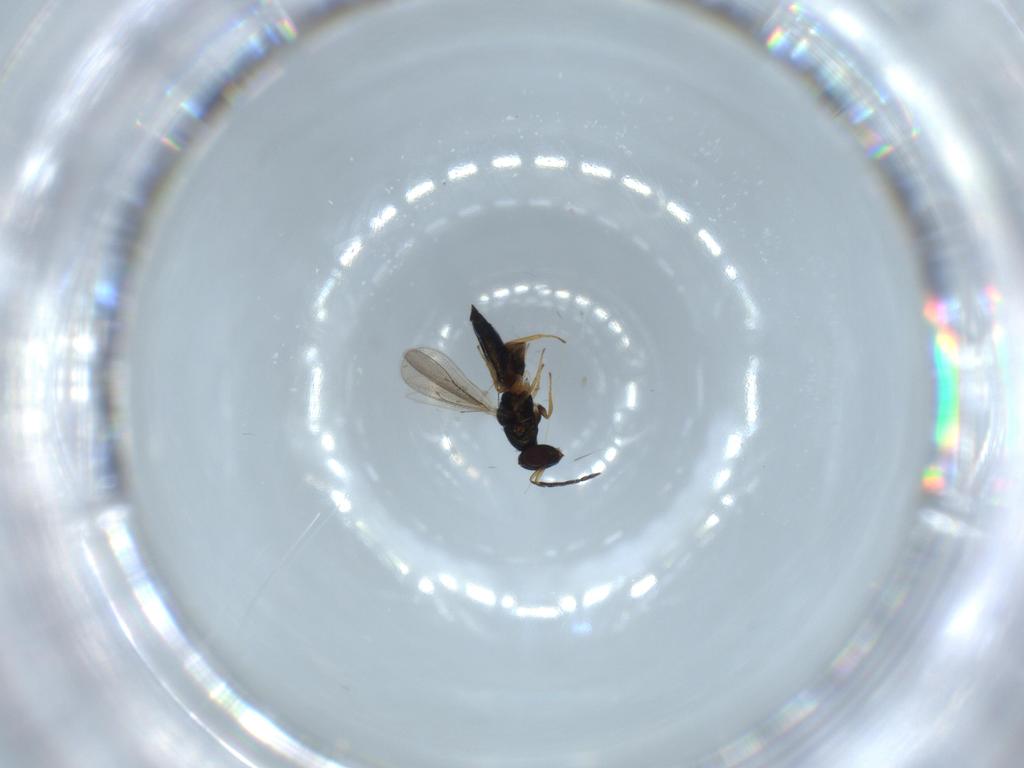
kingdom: Animalia
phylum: Arthropoda
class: Insecta
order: Hymenoptera
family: Eulophidae
